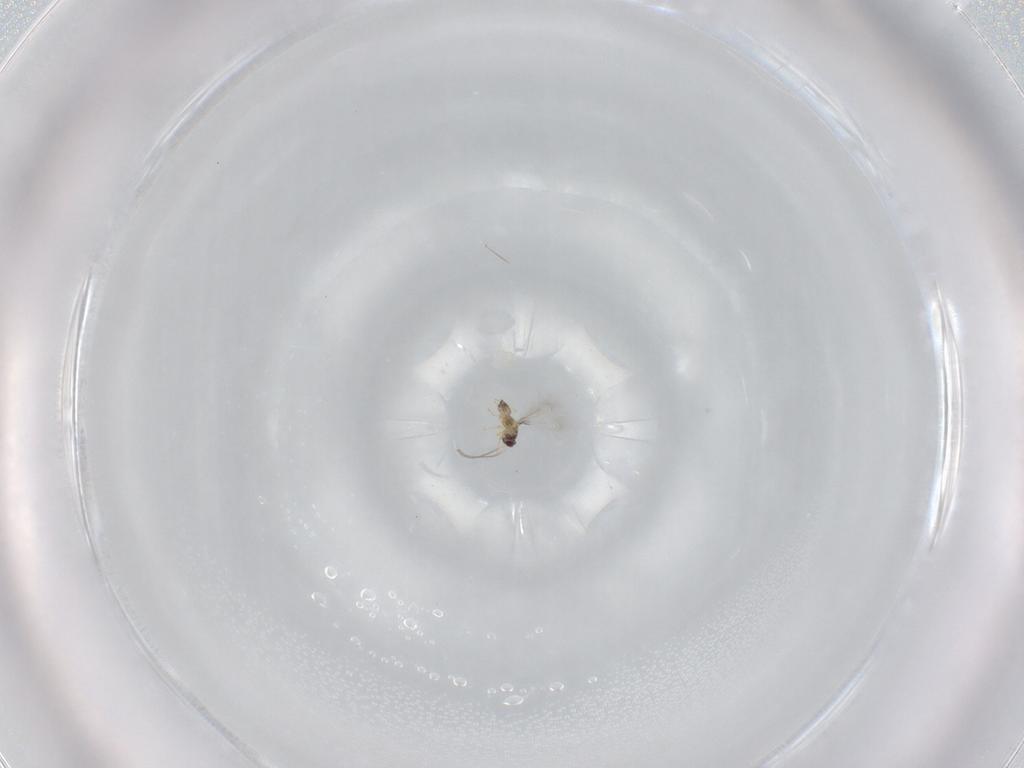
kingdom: Animalia
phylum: Arthropoda
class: Insecta
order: Hymenoptera
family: Mymaridae
